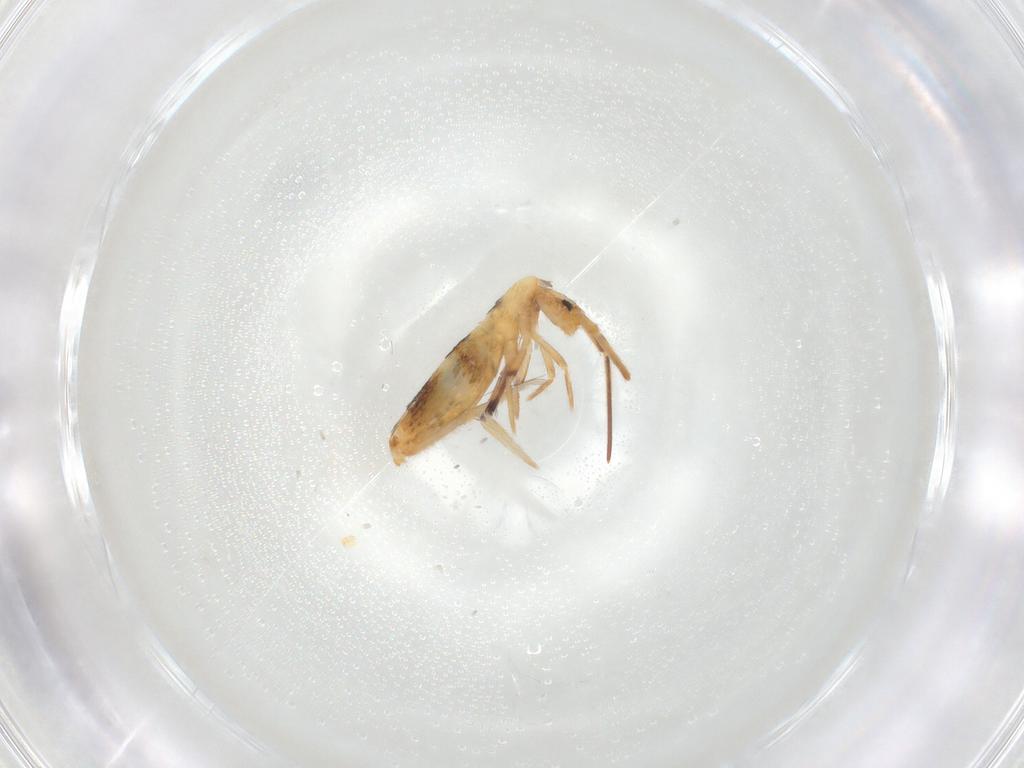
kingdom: Animalia
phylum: Arthropoda
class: Collembola
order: Entomobryomorpha
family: Entomobryidae
